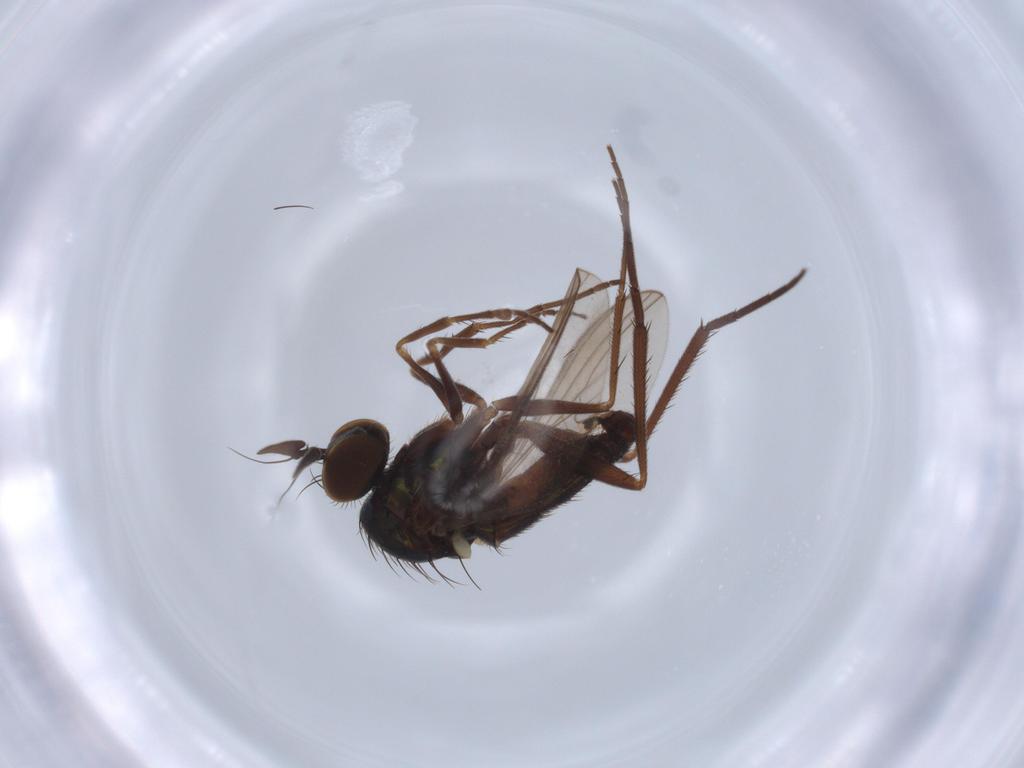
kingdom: Animalia
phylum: Arthropoda
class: Insecta
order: Diptera
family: Dolichopodidae
